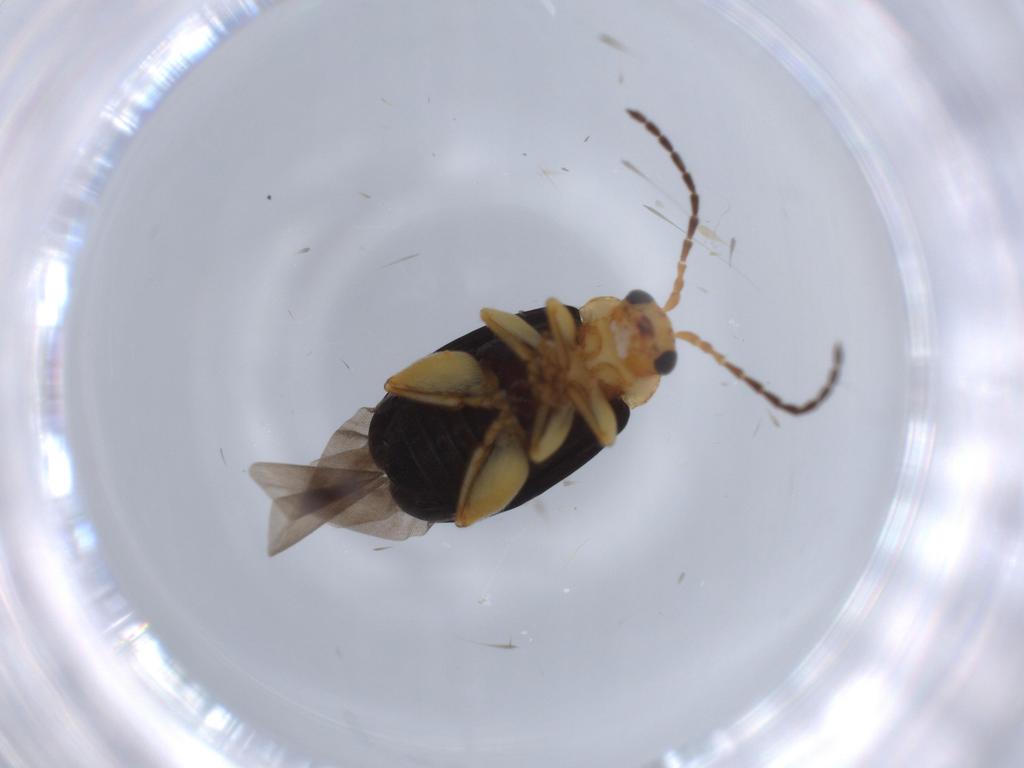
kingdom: Animalia
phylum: Arthropoda
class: Insecta
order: Coleoptera
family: Chrysomelidae
